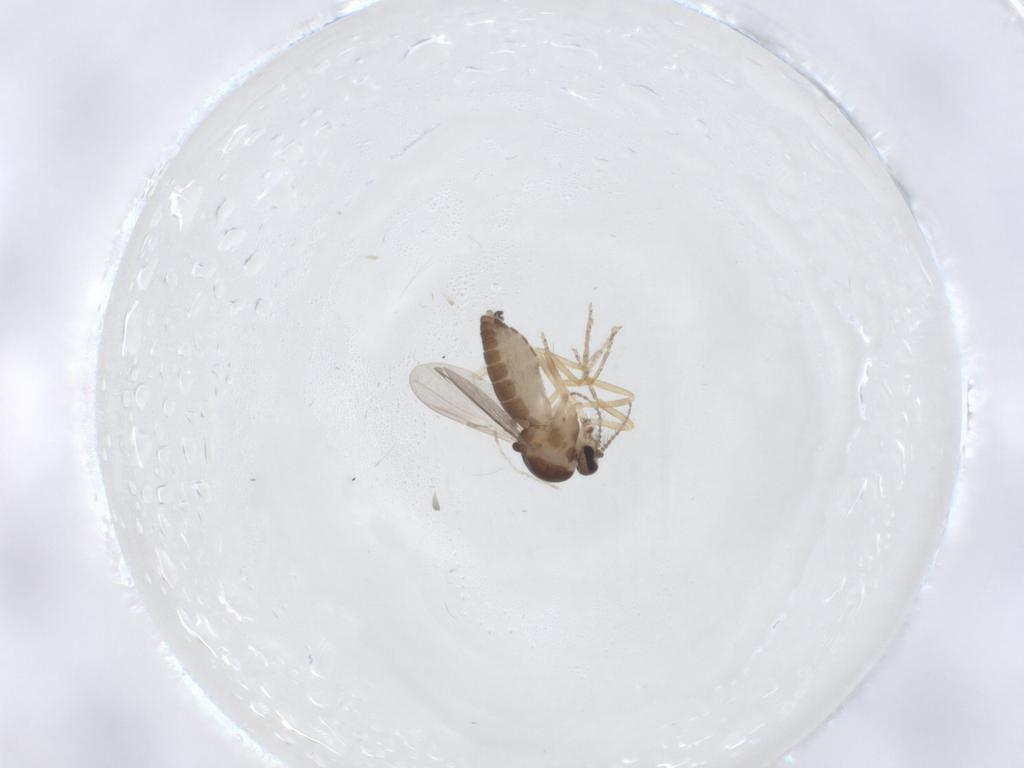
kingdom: Animalia
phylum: Arthropoda
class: Insecta
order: Diptera
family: Ceratopogonidae
